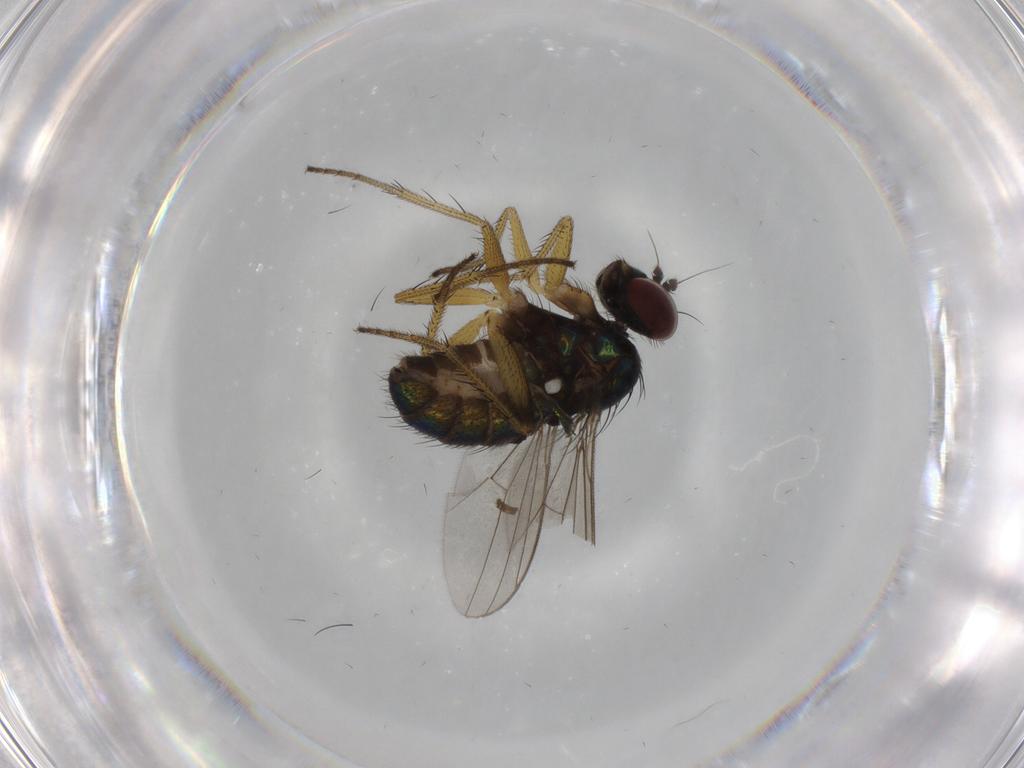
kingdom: Animalia
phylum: Arthropoda
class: Insecta
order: Diptera
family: Dolichopodidae
